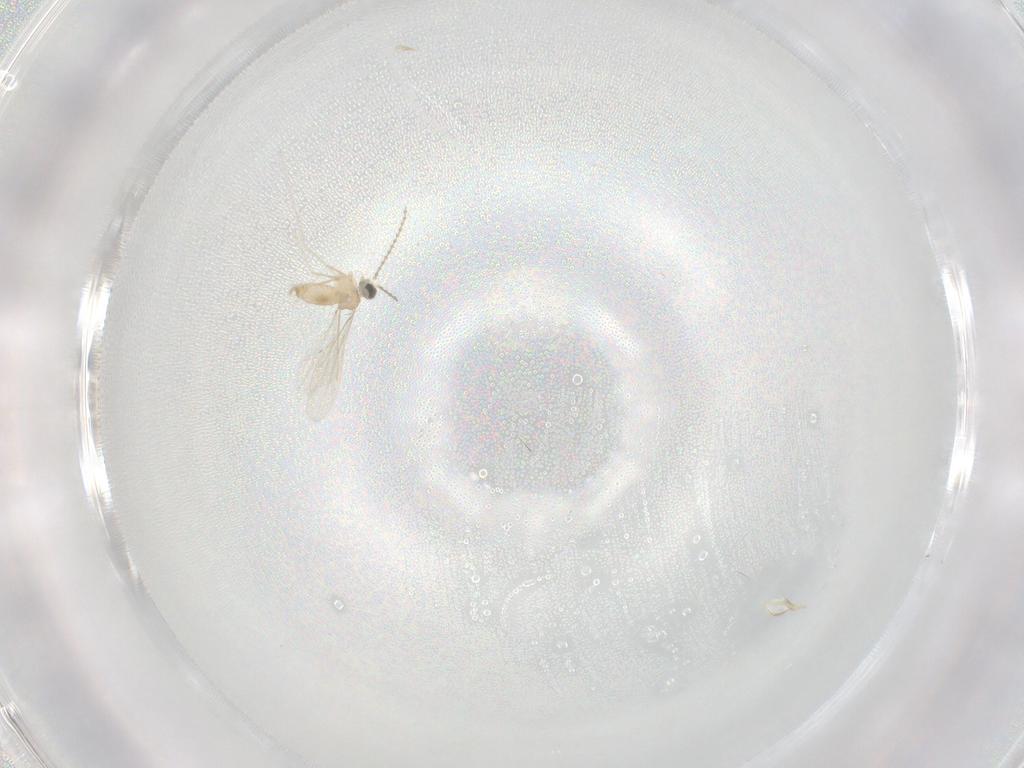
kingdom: Animalia
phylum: Arthropoda
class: Insecta
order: Diptera
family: Cecidomyiidae
